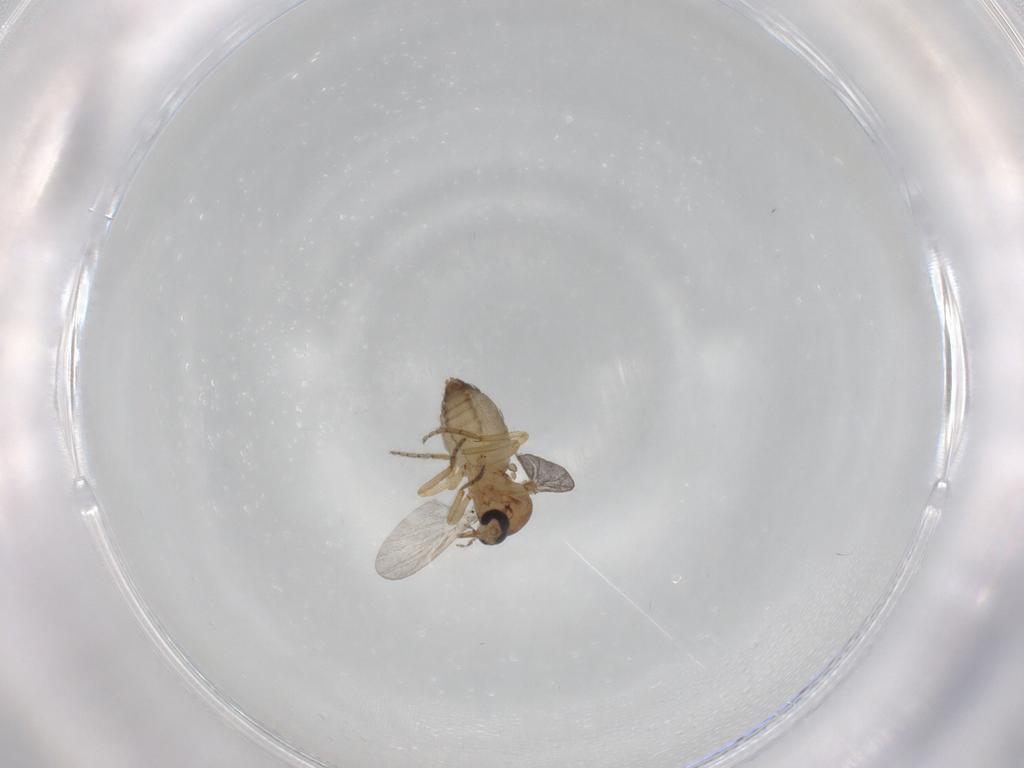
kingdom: Animalia
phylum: Arthropoda
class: Insecta
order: Diptera
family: Ceratopogonidae
